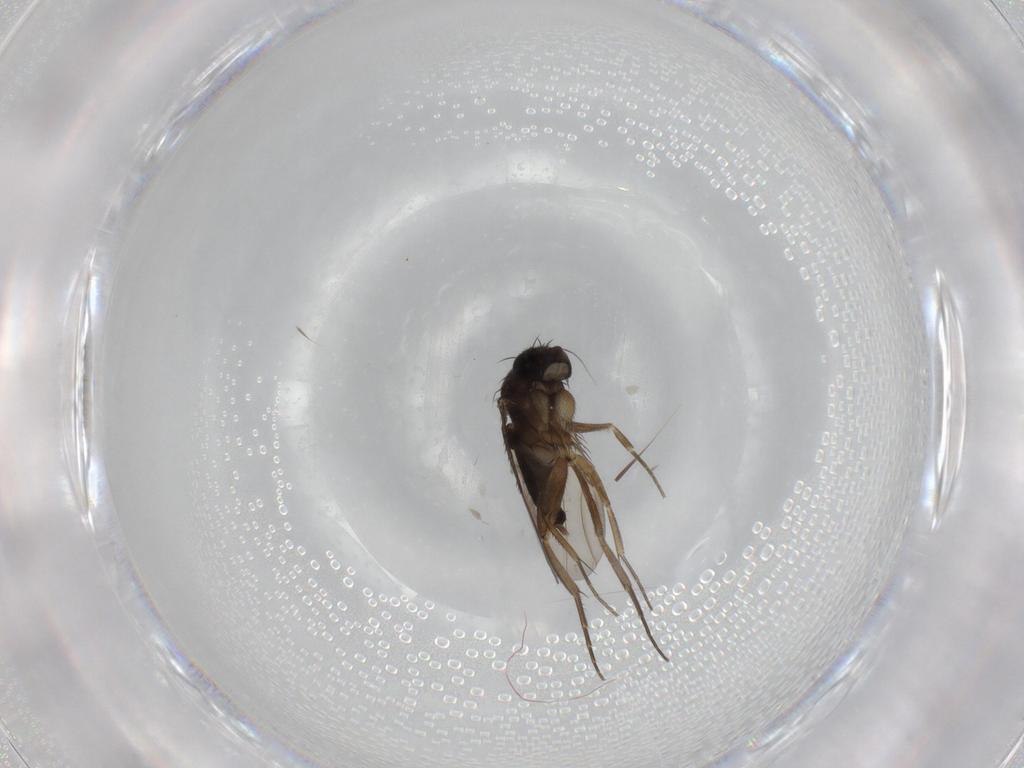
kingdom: Animalia
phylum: Arthropoda
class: Insecta
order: Diptera
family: Phoridae
